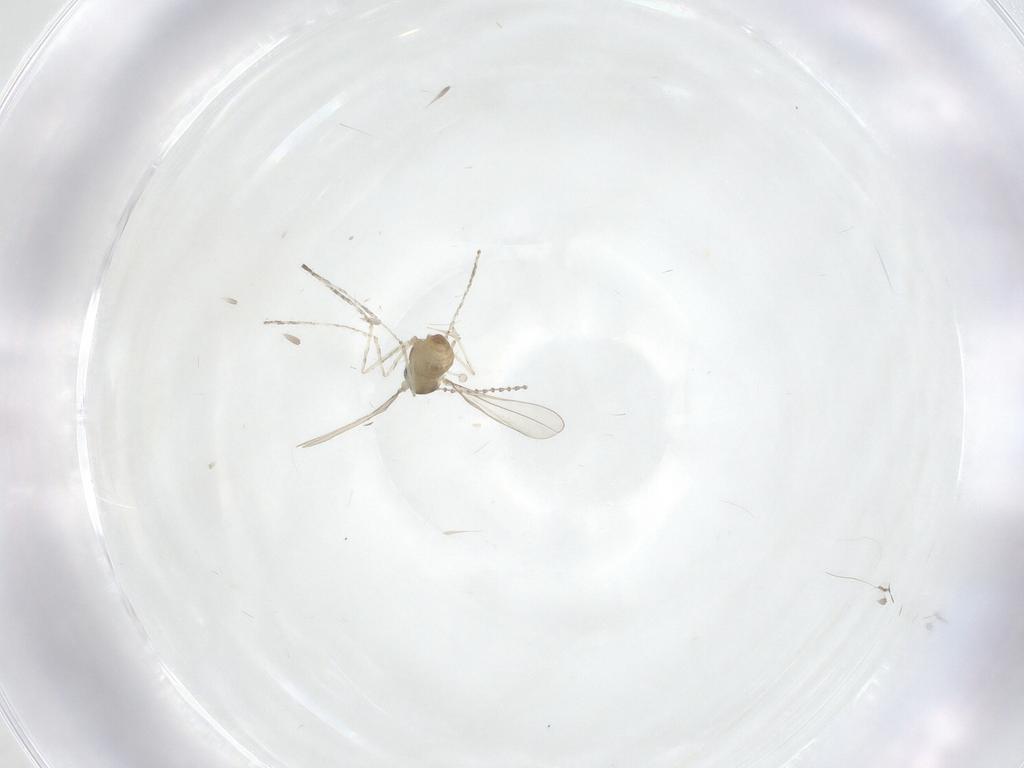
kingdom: Animalia
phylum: Arthropoda
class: Insecta
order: Diptera
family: Cecidomyiidae
